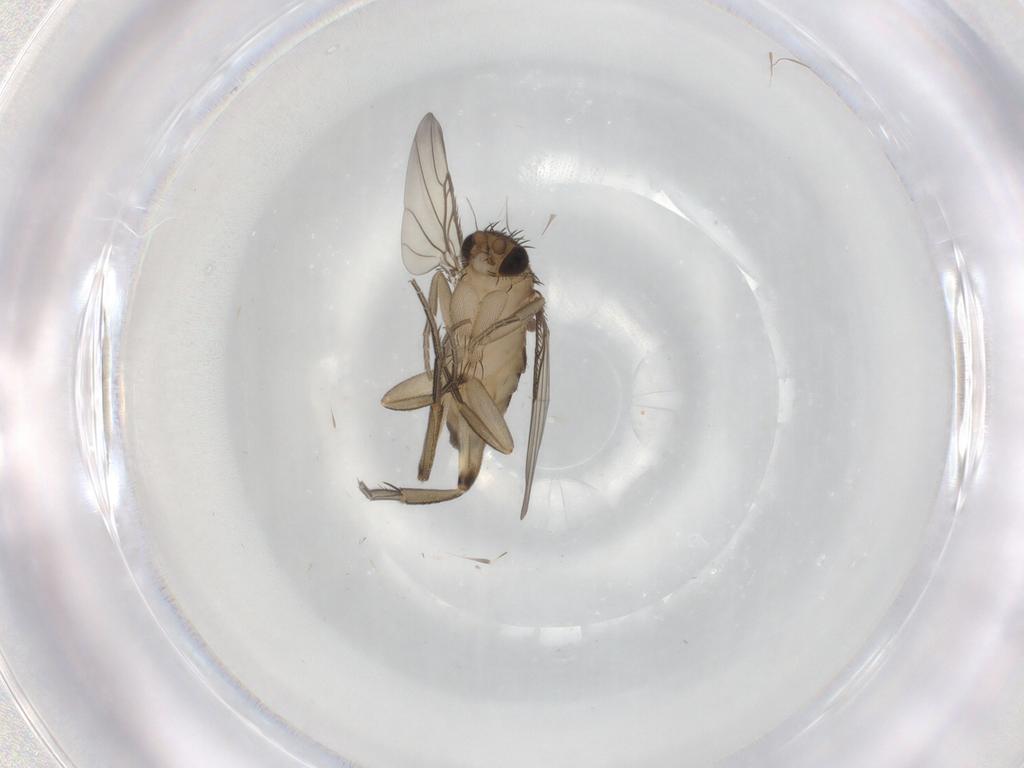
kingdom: Animalia
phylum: Arthropoda
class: Insecta
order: Diptera
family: Phoridae
